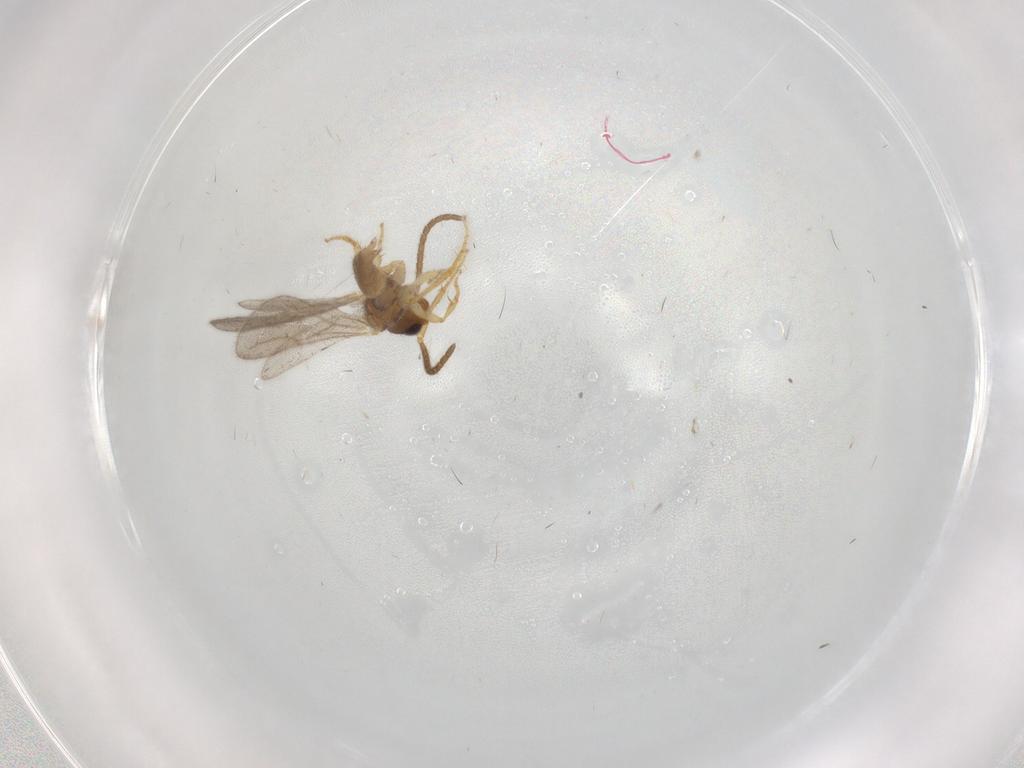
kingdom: Animalia
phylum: Arthropoda
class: Insecta
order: Hymenoptera
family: Bethylidae
